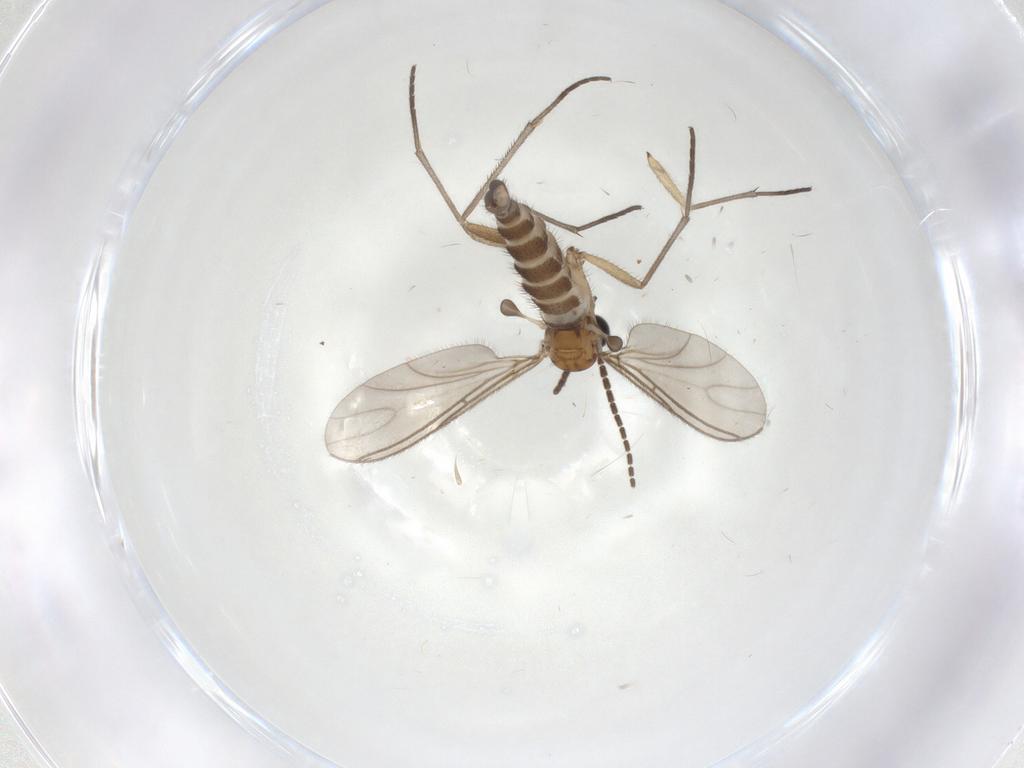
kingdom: Animalia
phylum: Arthropoda
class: Insecta
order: Diptera
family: Sciaridae
